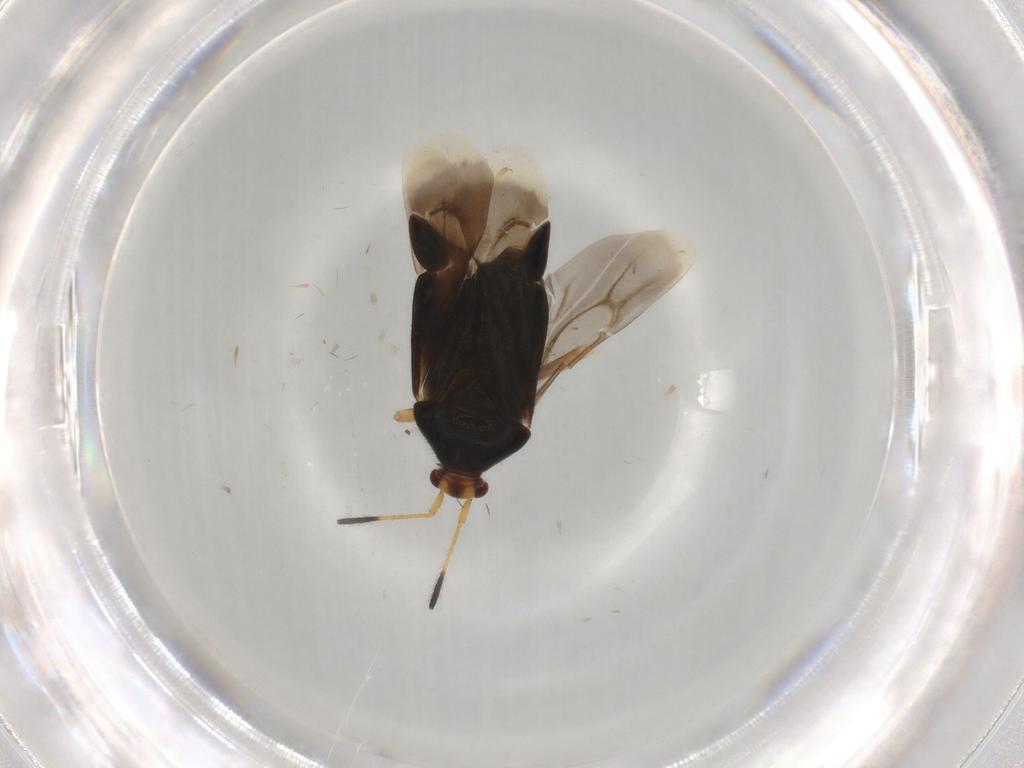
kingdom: Animalia
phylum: Arthropoda
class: Insecta
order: Hemiptera
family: Miridae
